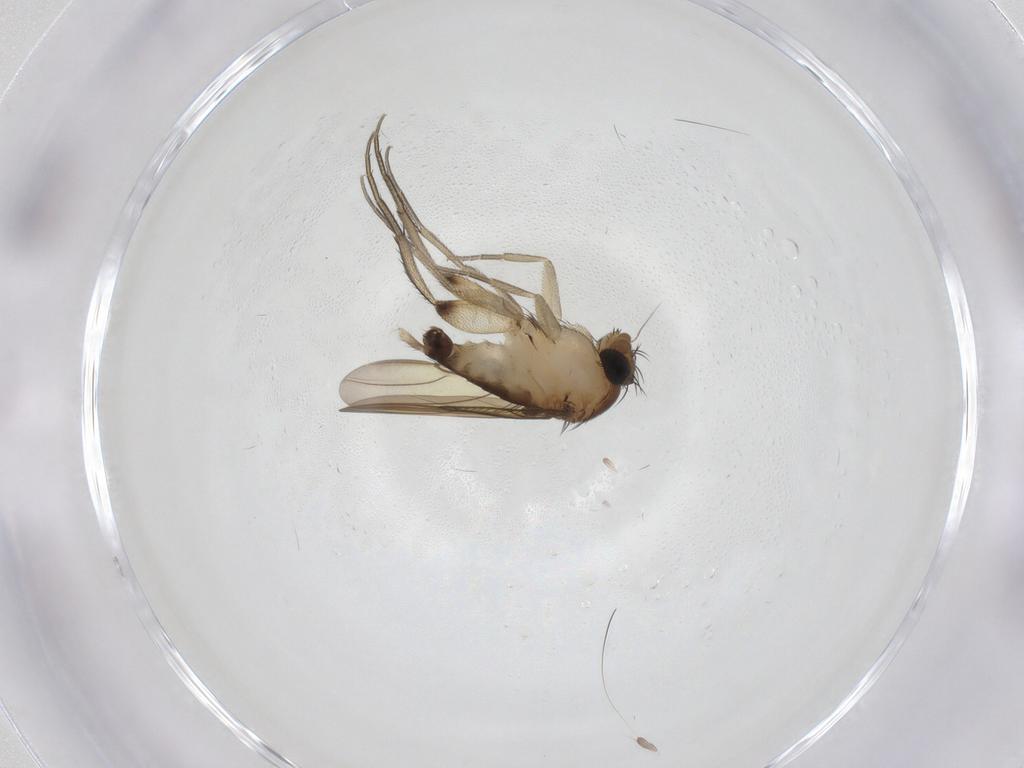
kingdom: Animalia
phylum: Arthropoda
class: Insecta
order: Diptera
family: Phoridae
